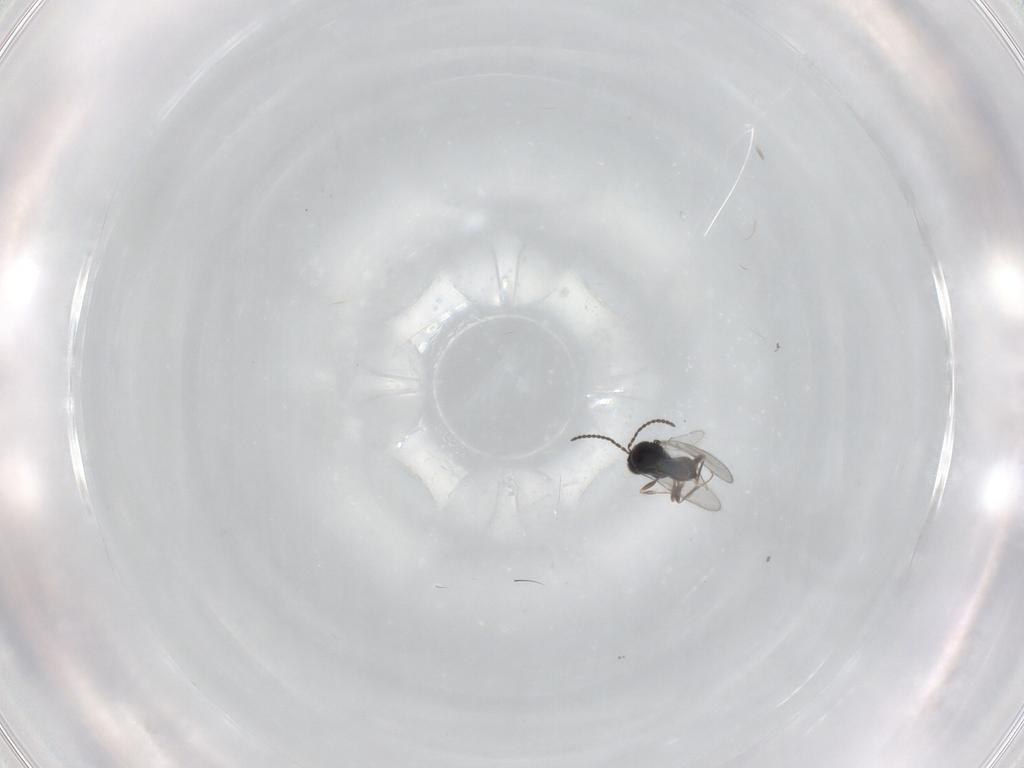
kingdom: Animalia
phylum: Arthropoda
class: Insecta
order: Hymenoptera
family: Scelionidae
